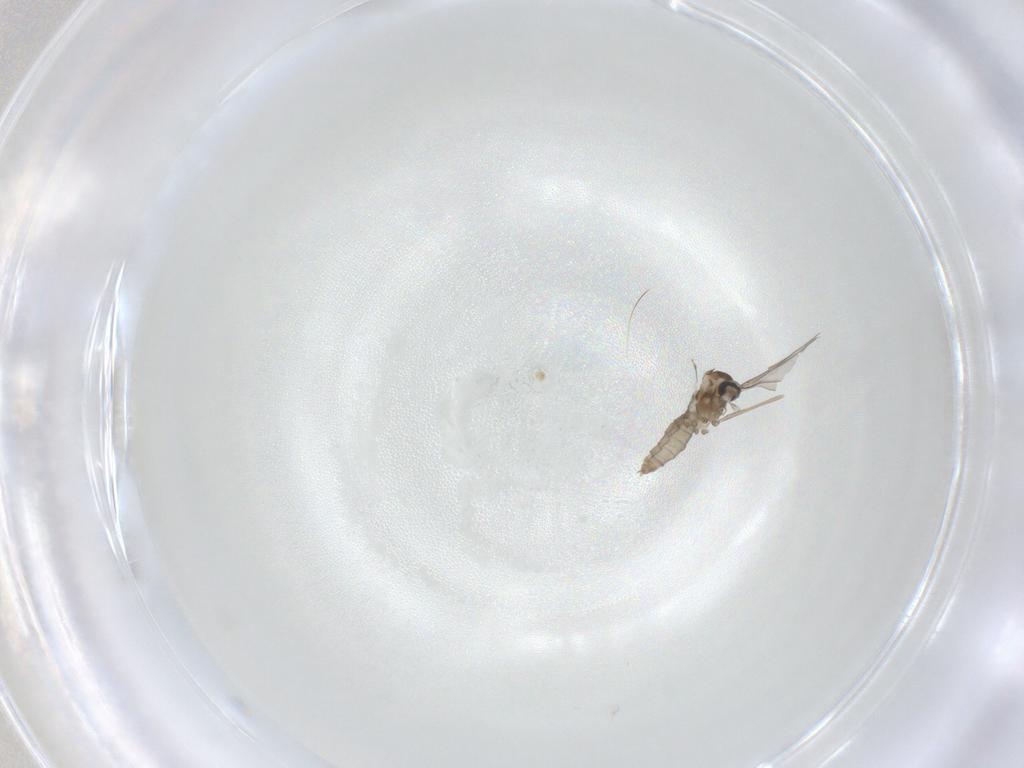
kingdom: Animalia
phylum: Arthropoda
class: Insecta
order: Diptera
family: Cecidomyiidae
